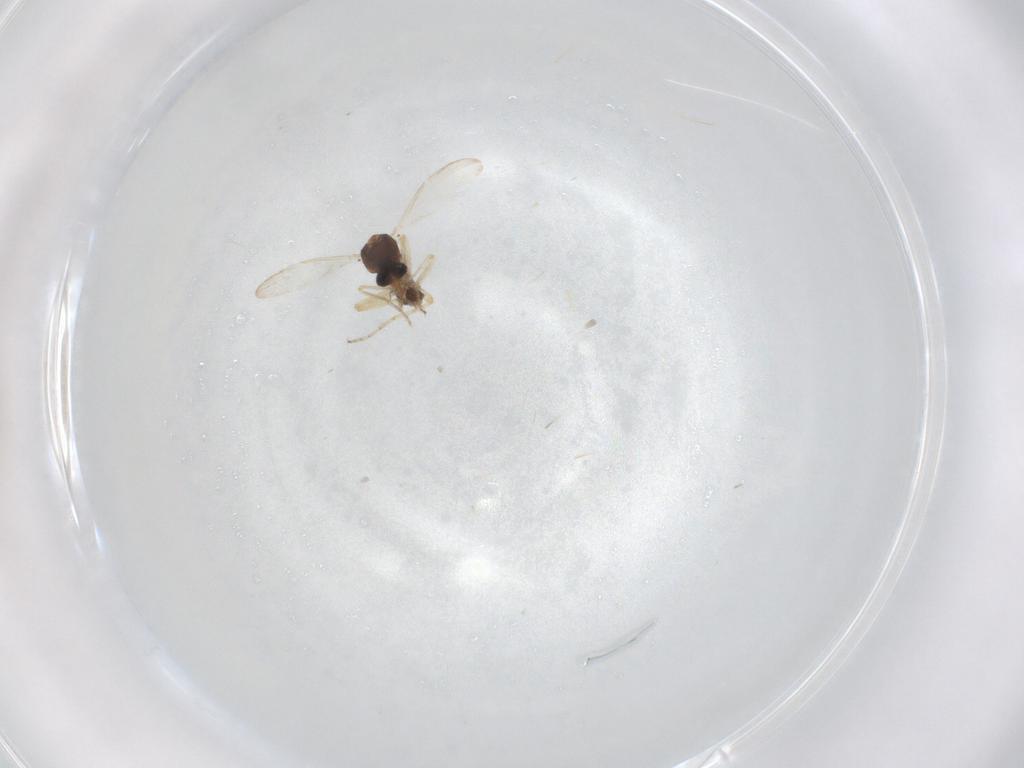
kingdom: Animalia
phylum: Arthropoda
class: Insecta
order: Diptera
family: Ceratopogonidae
